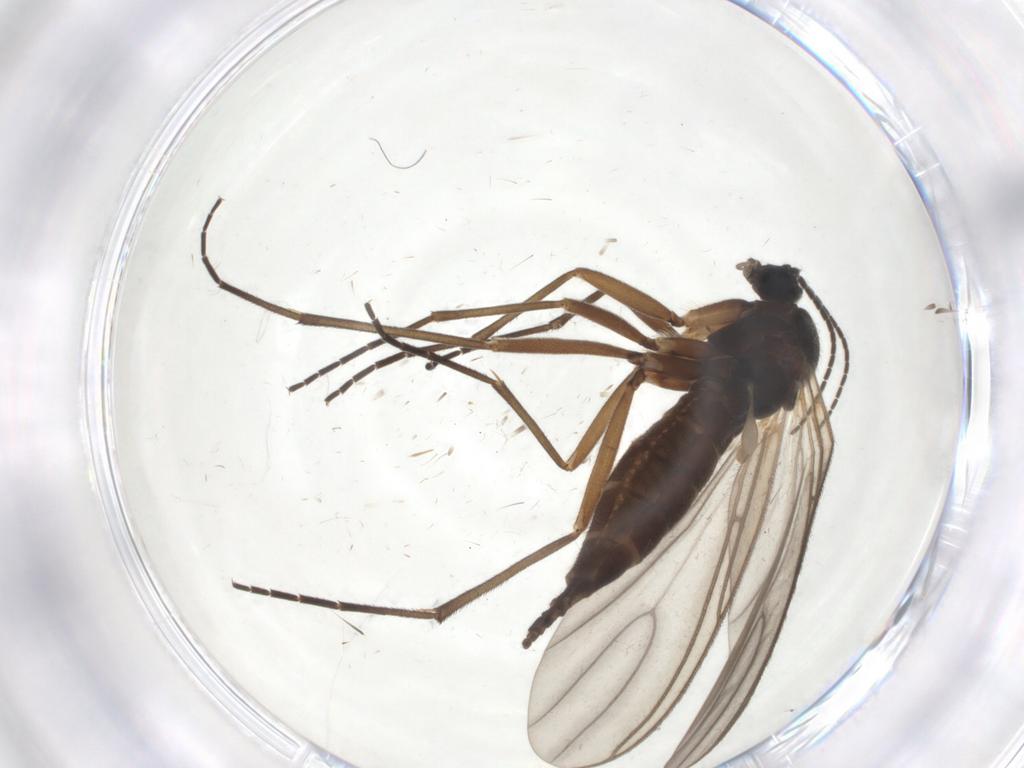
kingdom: Animalia
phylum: Arthropoda
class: Insecta
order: Diptera
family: Sciaridae
